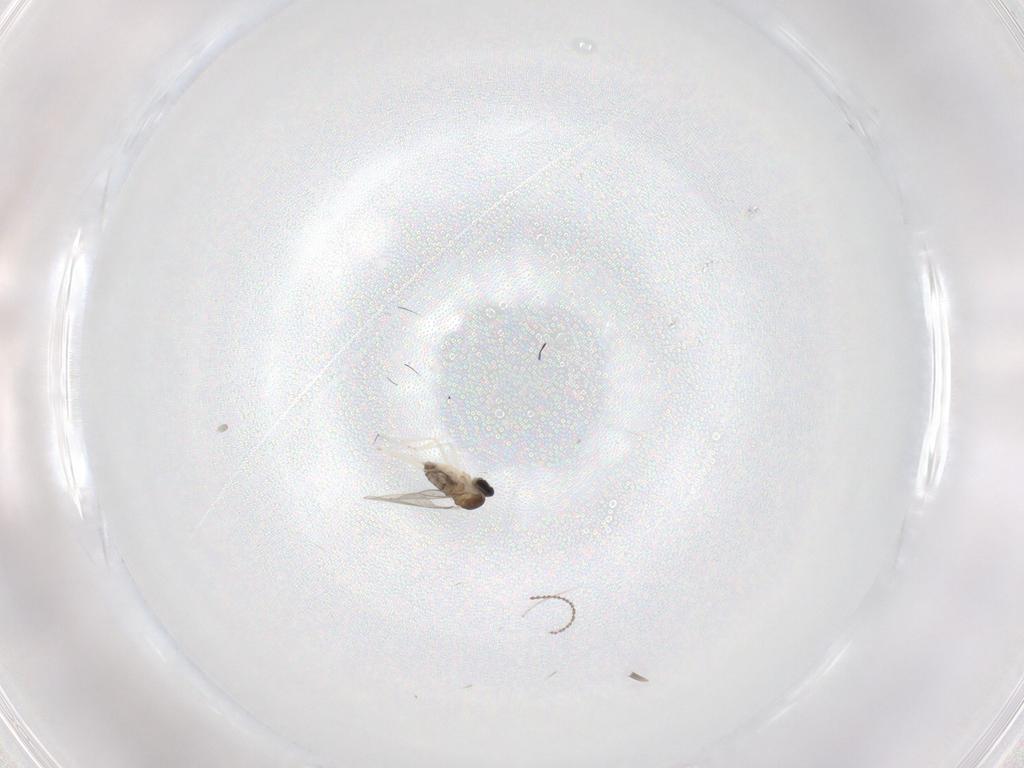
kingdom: Animalia
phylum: Arthropoda
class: Insecta
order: Diptera
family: Cecidomyiidae
